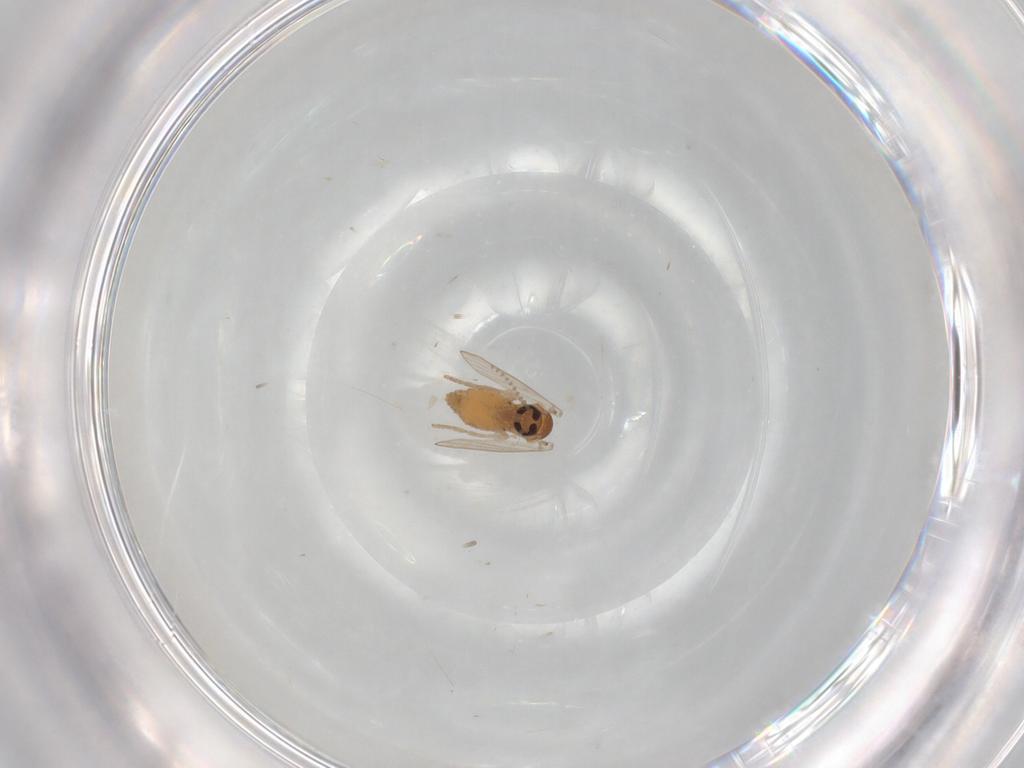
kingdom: Animalia
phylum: Arthropoda
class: Insecta
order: Diptera
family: Psychodidae
